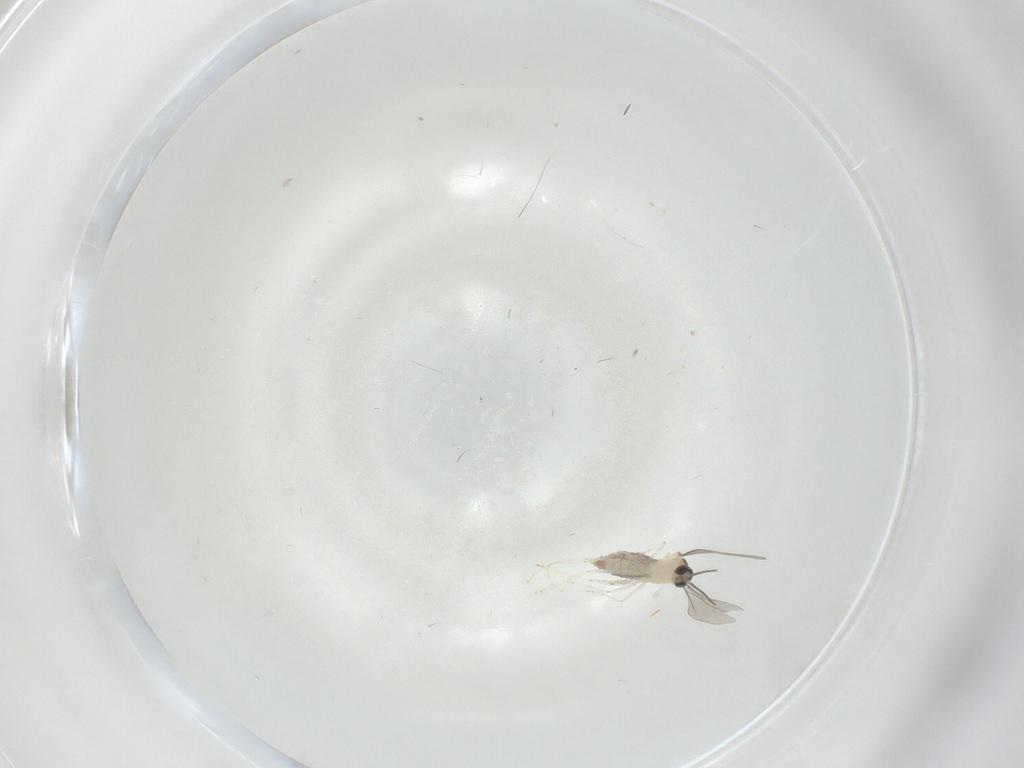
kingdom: Animalia
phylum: Arthropoda
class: Insecta
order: Diptera
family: Cecidomyiidae
